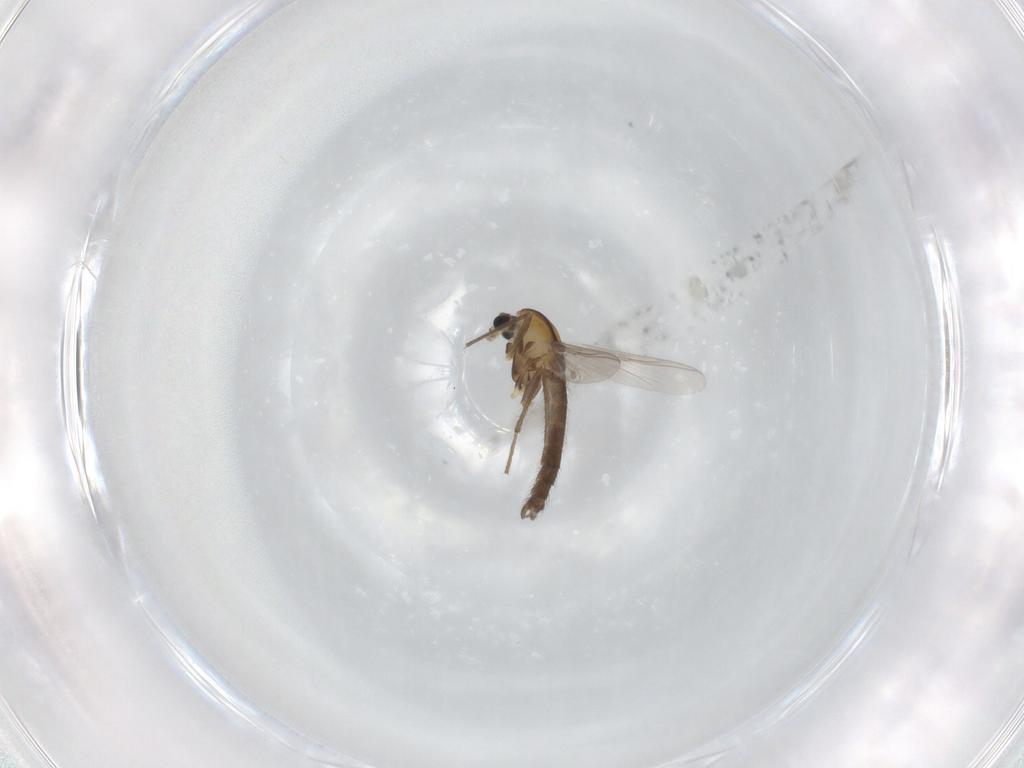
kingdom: Animalia
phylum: Arthropoda
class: Insecta
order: Diptera
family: Chironomidae
